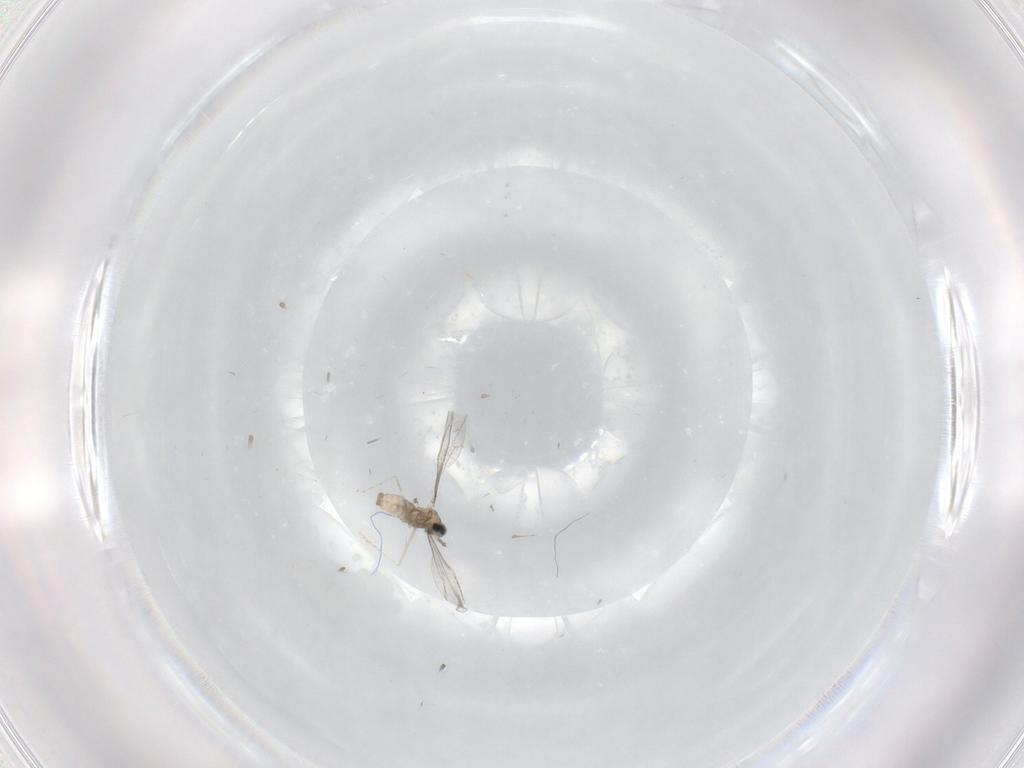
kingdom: Animalia
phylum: Arthropoda
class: Insecta
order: Diptera
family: Cecidomyiidae
